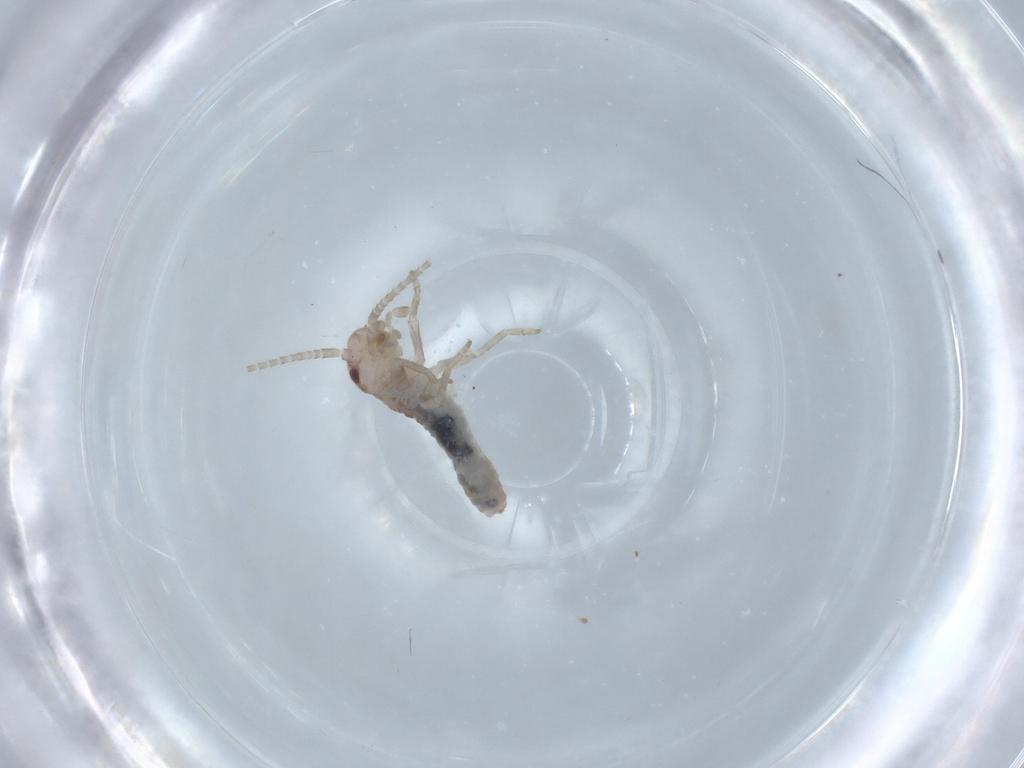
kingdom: Animalia
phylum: Arthropoda
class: Insecta
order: Orthoptera
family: Mogoplistidae
